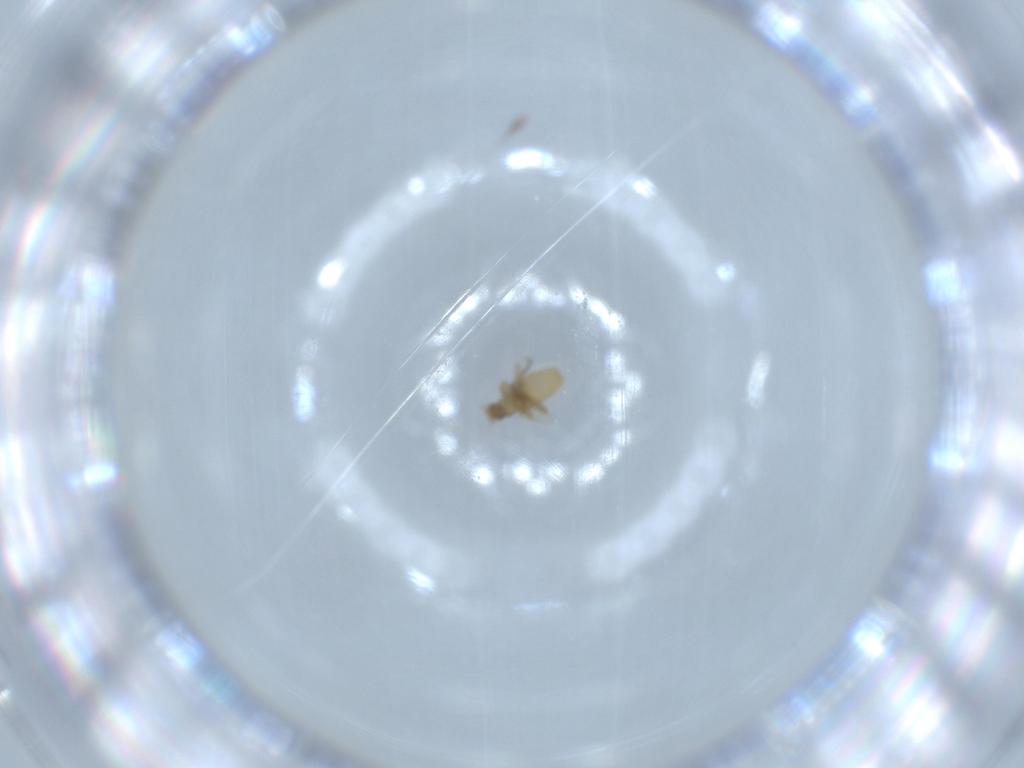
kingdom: Animalia
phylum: Arthropoda
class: Insecta
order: Diptera
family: Phoridae
